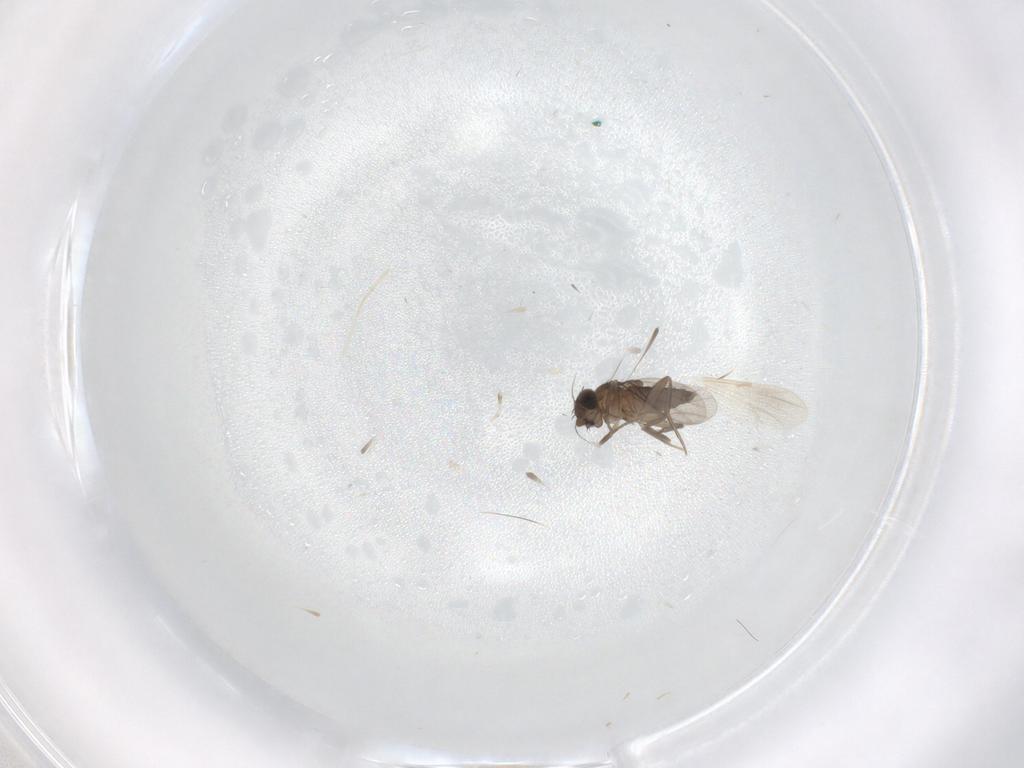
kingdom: Animalia
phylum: Arthropoda
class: Insecta
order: Diptera
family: Phoridae
